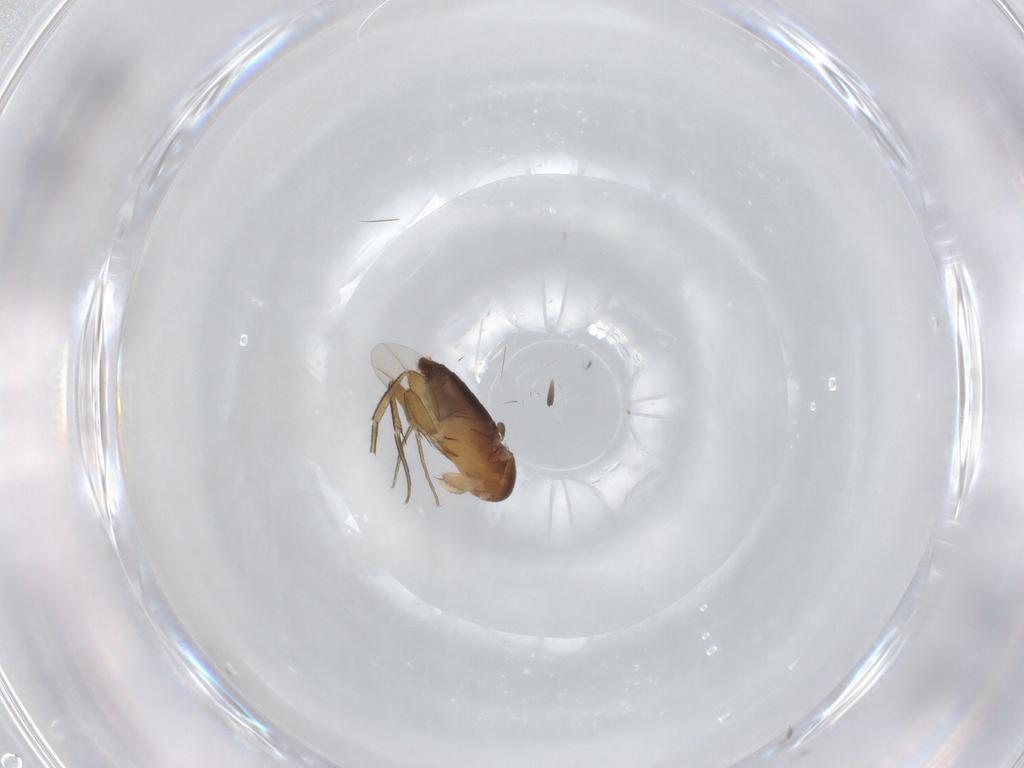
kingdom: Animalia
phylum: Arthropoda
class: Insecta
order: Diptera
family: Phoridae
